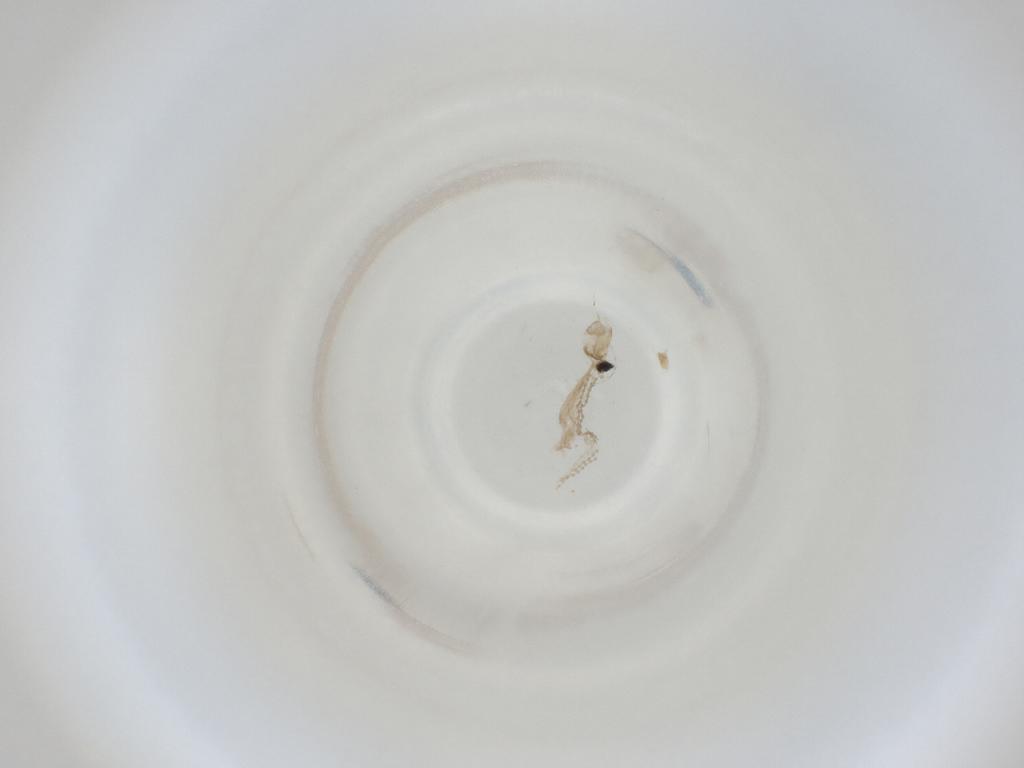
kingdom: Animalia
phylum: Arthropoda
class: Insecta
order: Diptera
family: Cecidomyiidae
